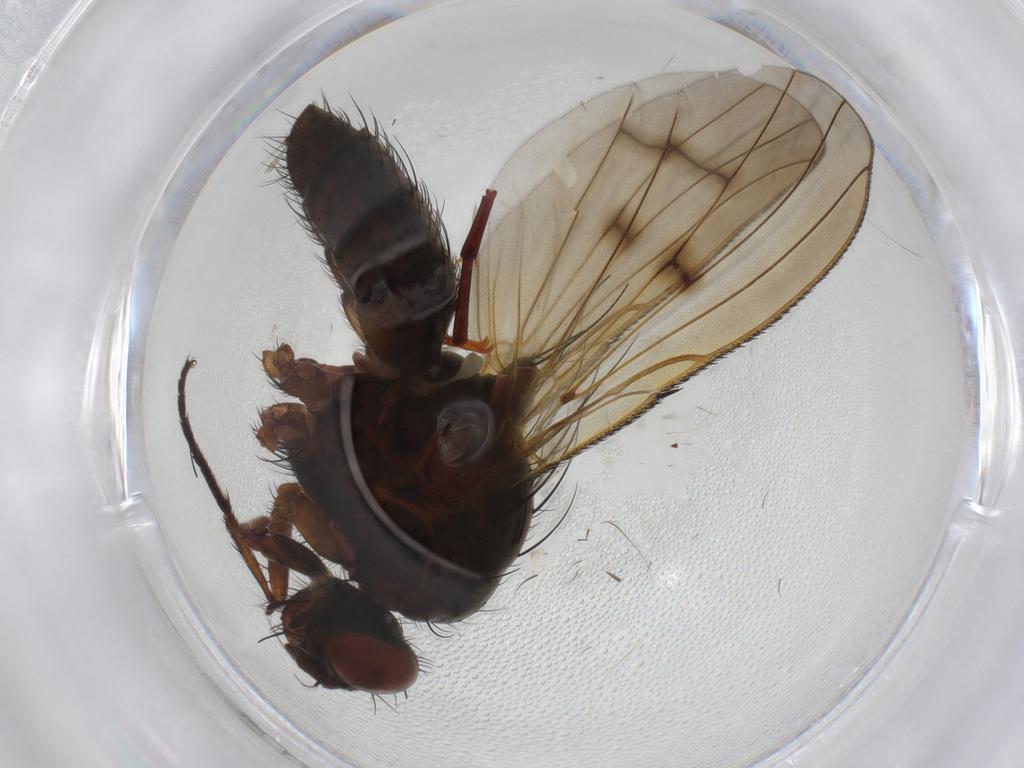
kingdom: Animalia
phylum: Arthropoda
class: Insecta
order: Diptera
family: Anthomyiidae
